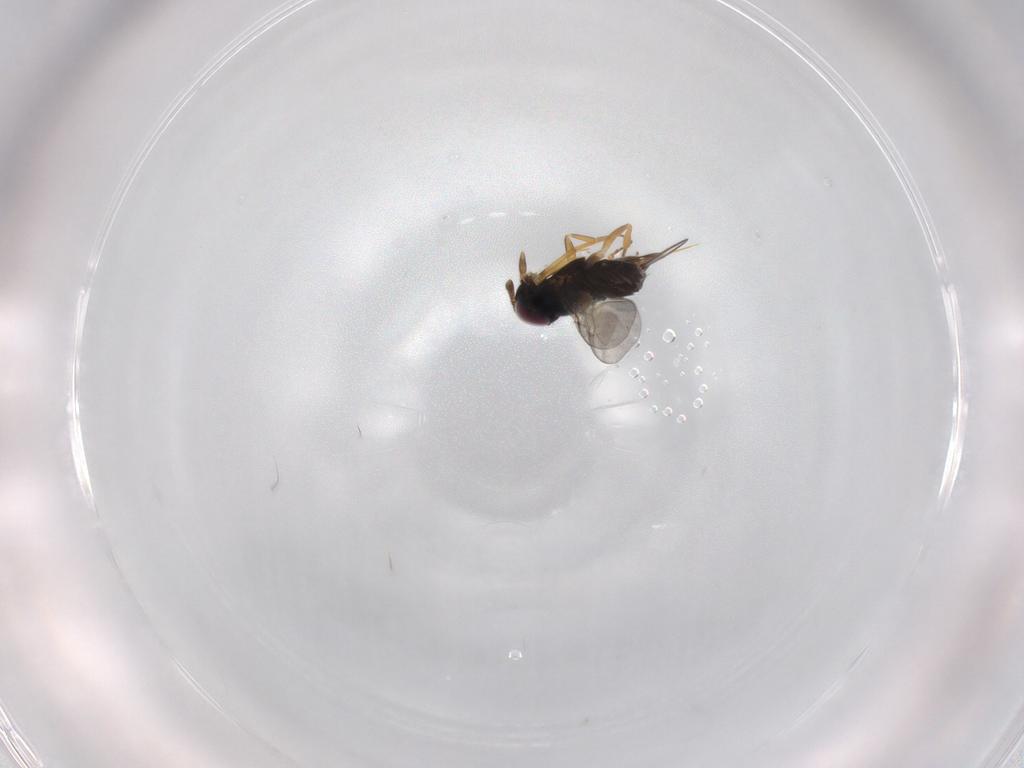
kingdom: Animalia
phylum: Arthropoda
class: Insecta
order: Hymenoptera
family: Encyrtidae
